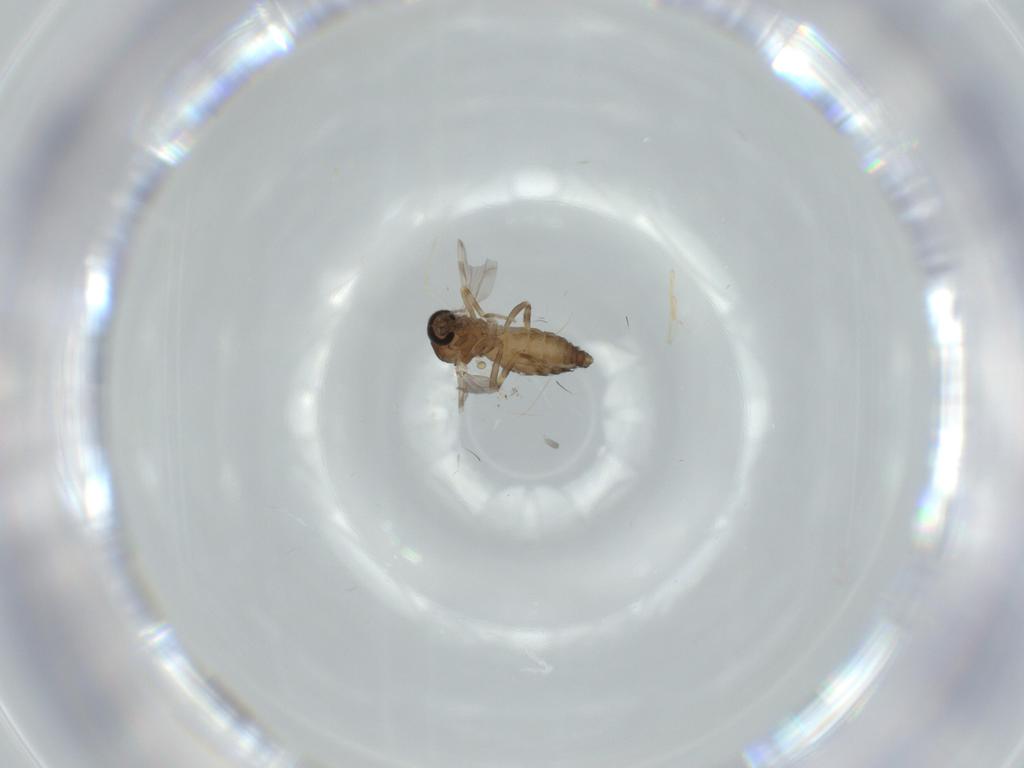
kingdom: Animalia
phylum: Arthropoda
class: Insecta
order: Diptera
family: Ceratopogonidae
